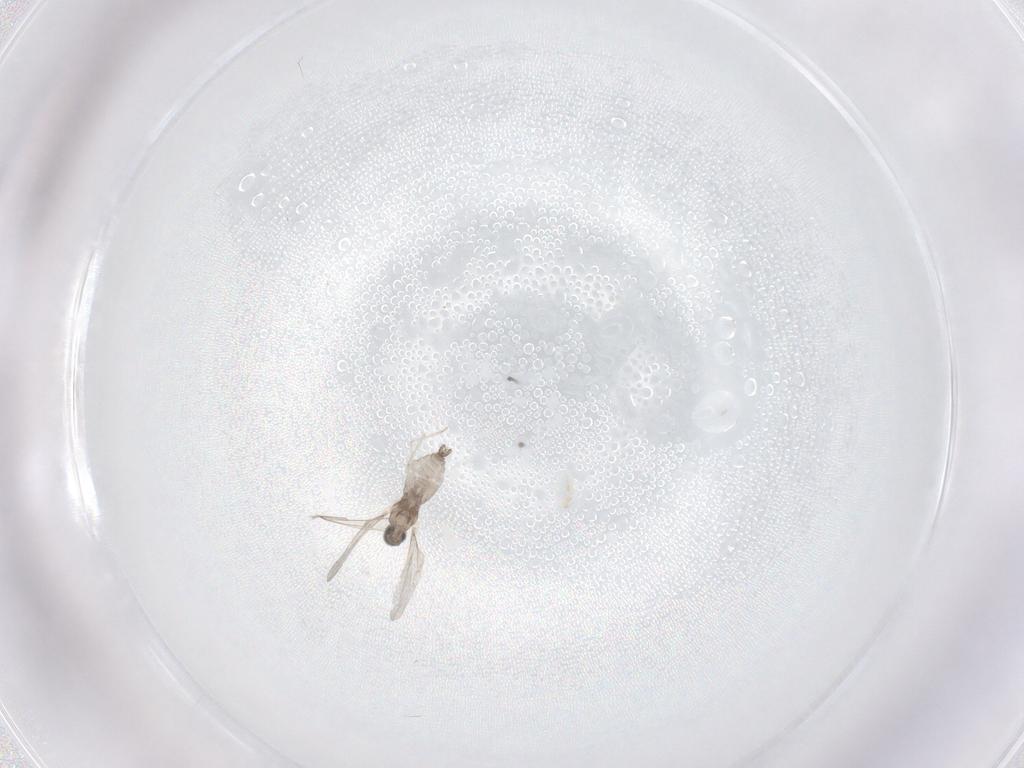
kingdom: Animalia
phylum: Arthropoda
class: Insecta
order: Diptera
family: Cecidomyiidae
